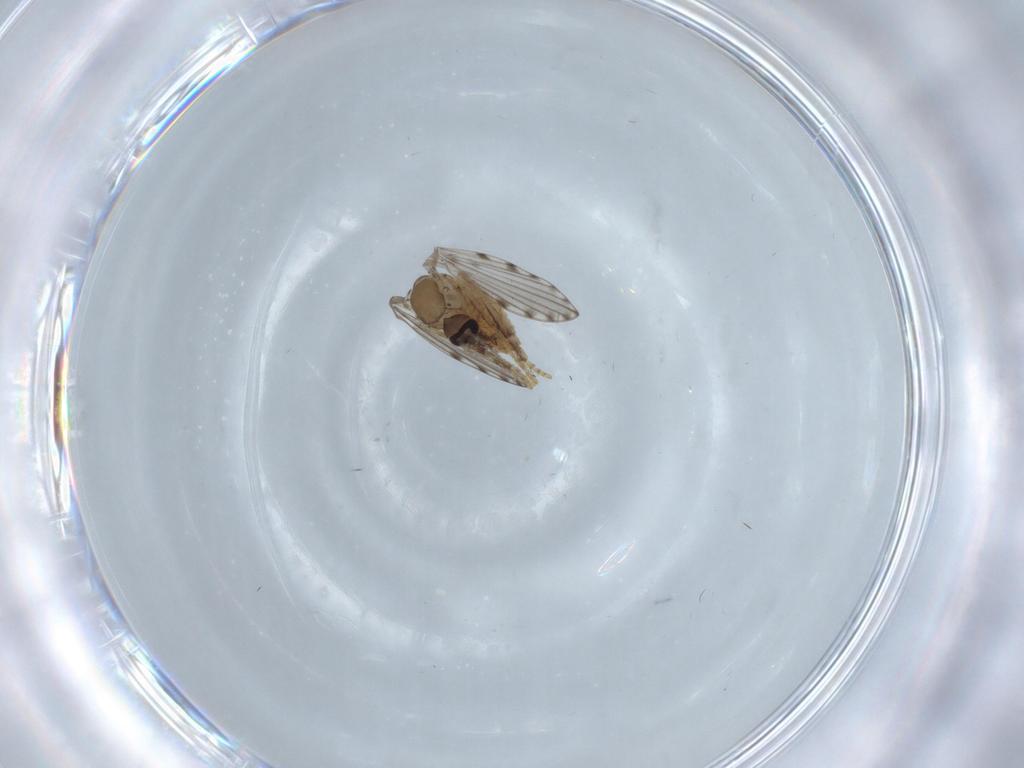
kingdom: Animalia
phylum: Arthropoda
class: Insecta
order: Diptera
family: Psychodidae
